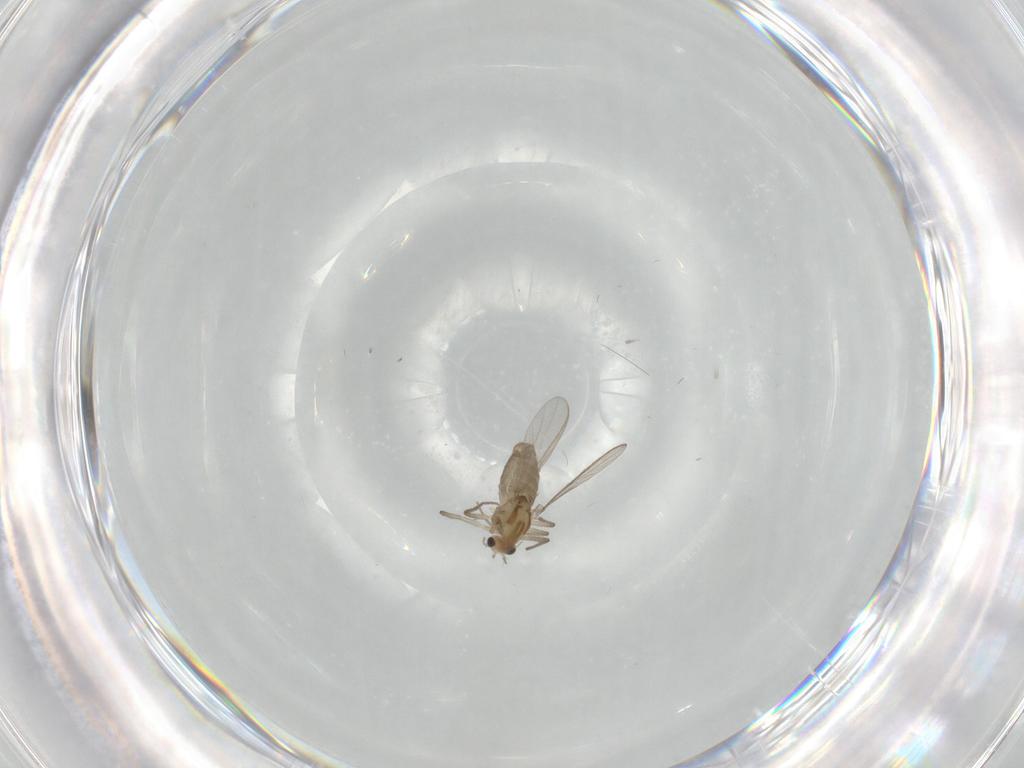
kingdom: Animalia
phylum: Arthropoda
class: Insecta
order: Diptera
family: Chironomidae
